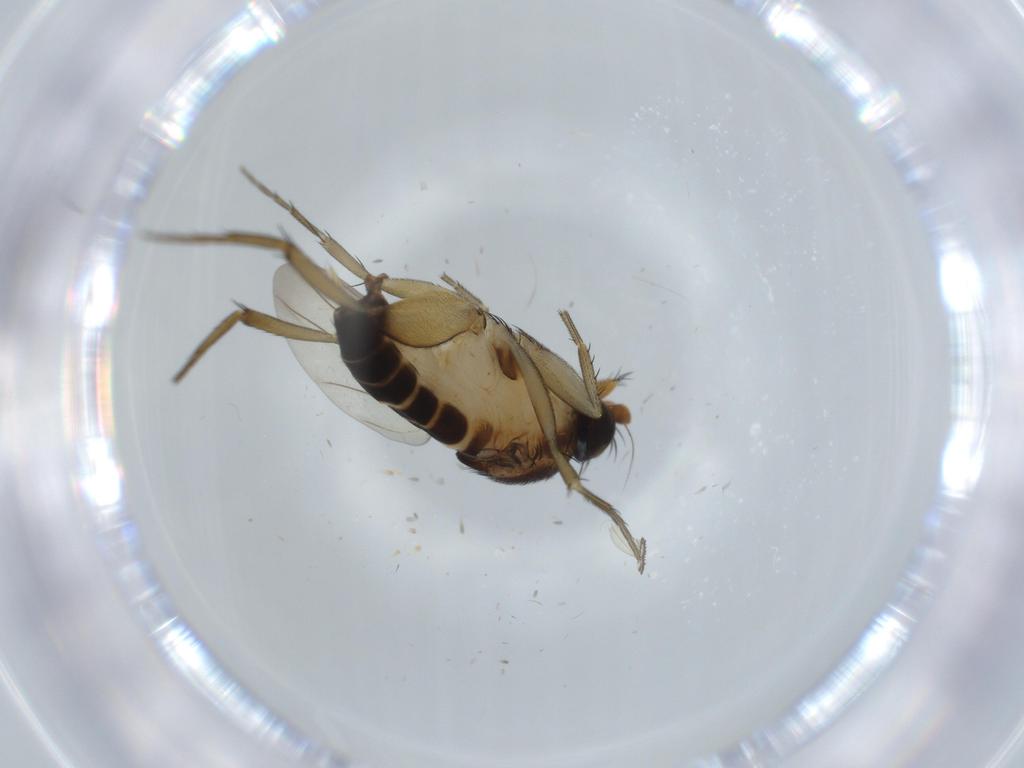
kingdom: Animalia
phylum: Arthropoda
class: Insecta
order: Diptera
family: Phoridae
